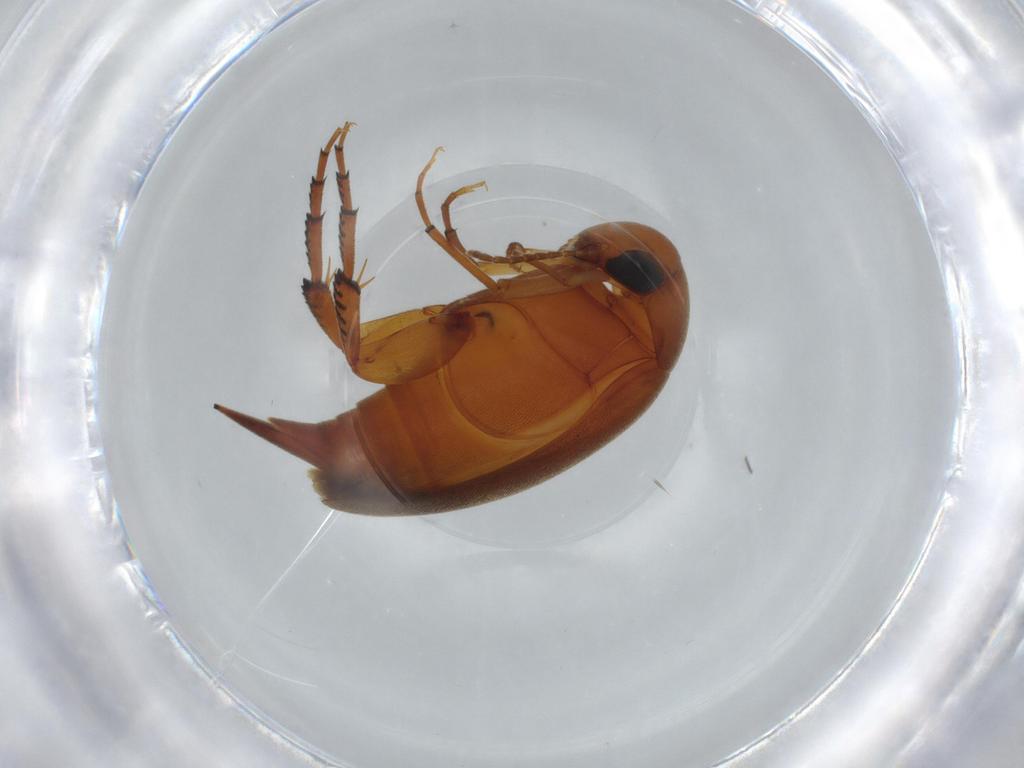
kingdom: Animalia
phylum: Arthropoda
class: Insecta
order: Coleoptera
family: Mordellidae
